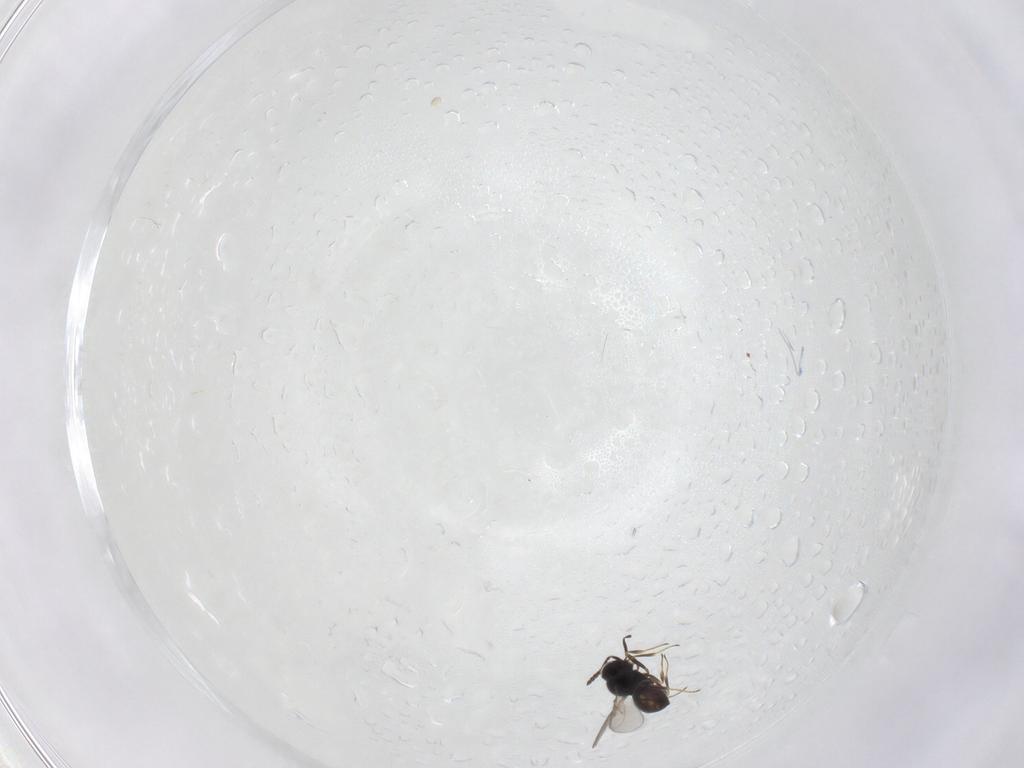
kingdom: Animalia
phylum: Arthropoda
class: Insecta
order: Hymenoptera
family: Scelionidae
